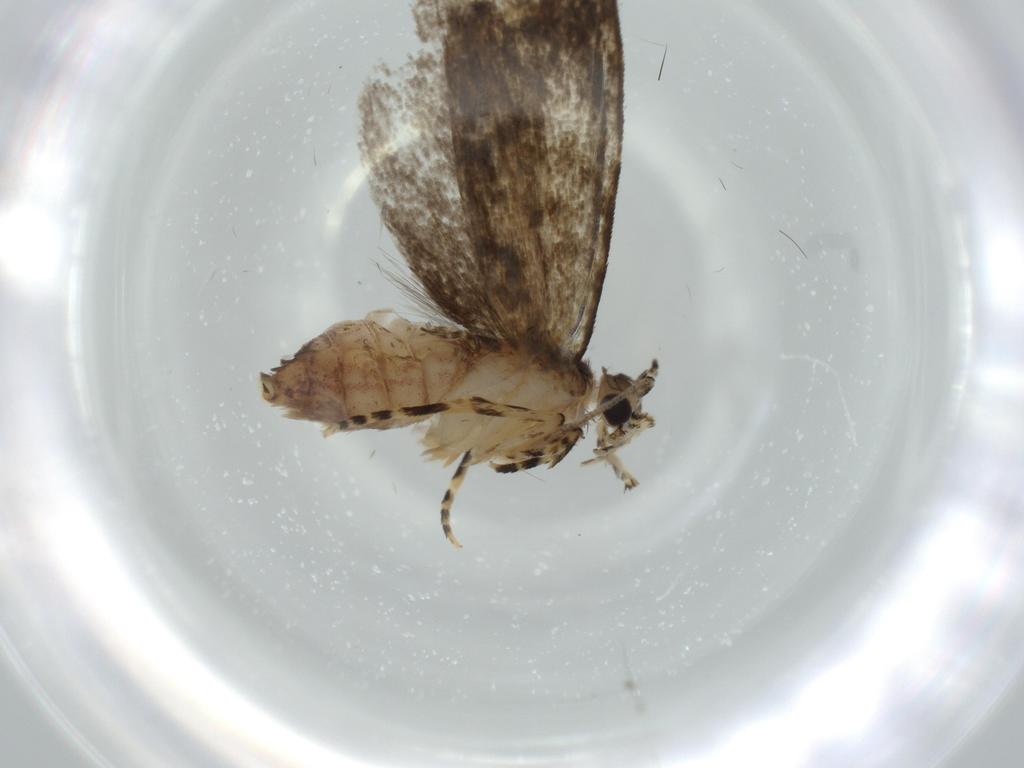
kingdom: Animalia
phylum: Arthropoda
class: Insecta
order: Lepidoptera
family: Tineidae
